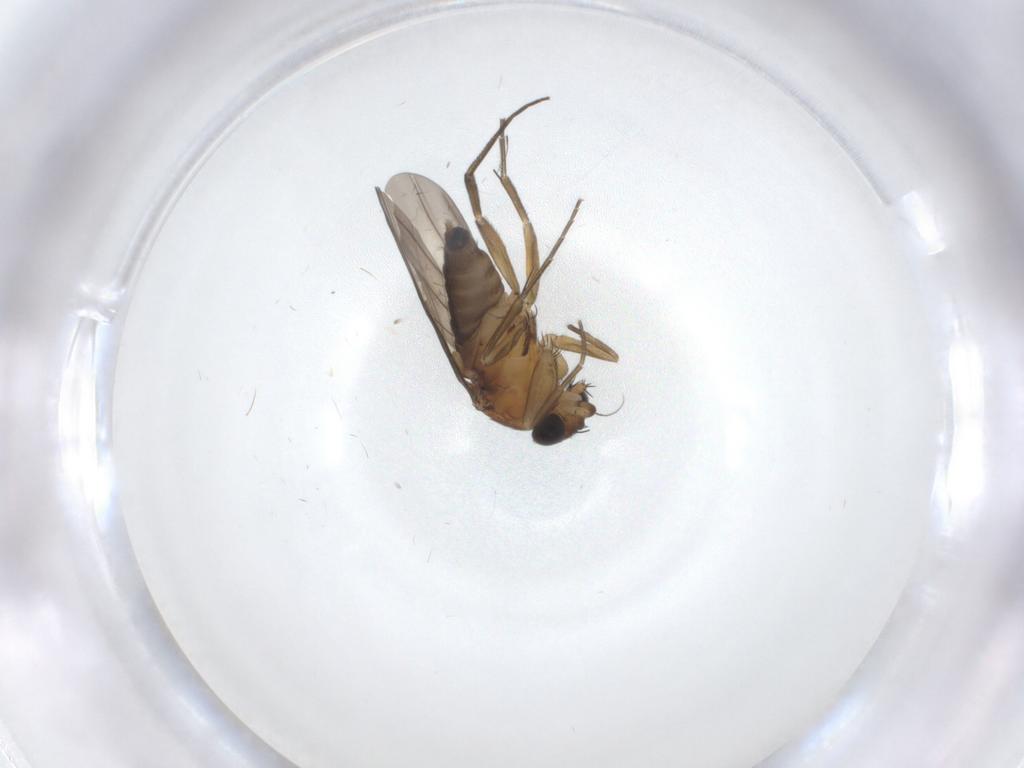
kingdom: Animalia
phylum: Arthropoda
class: Insecta
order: Diptera
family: Phoridae
